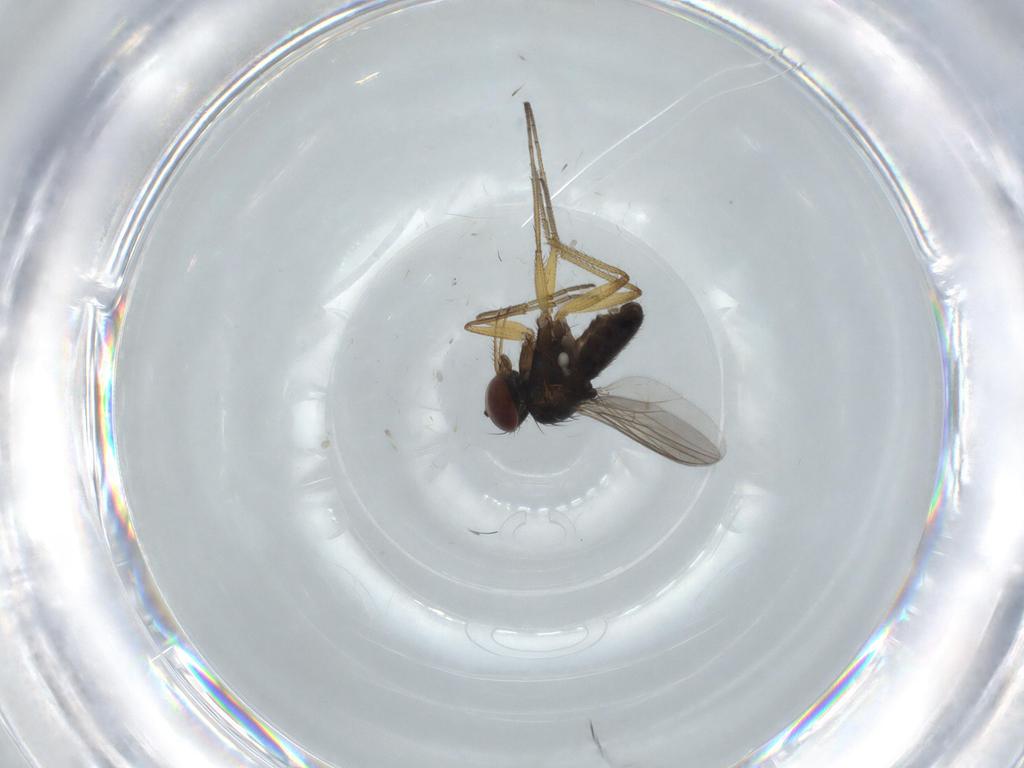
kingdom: Animalia
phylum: Arthropoda
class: Insecta
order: Diptera
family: Dolichopodidae
